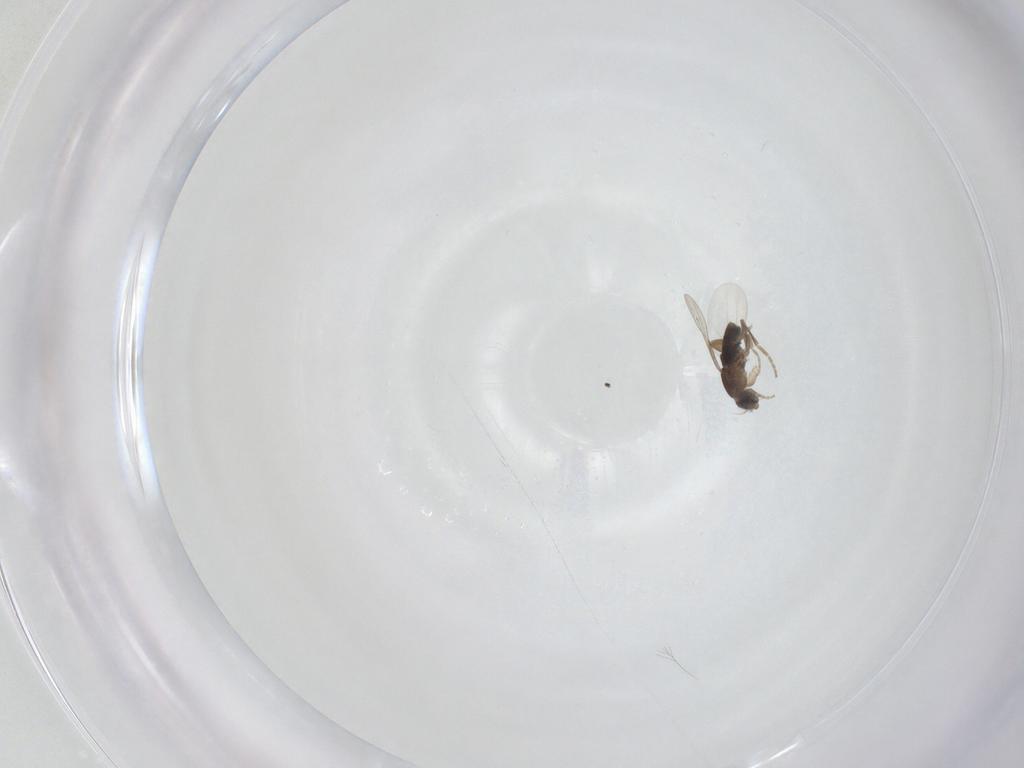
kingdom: Animalia
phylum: Arthropoda
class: Insecta
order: Diptera
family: Phoridae
